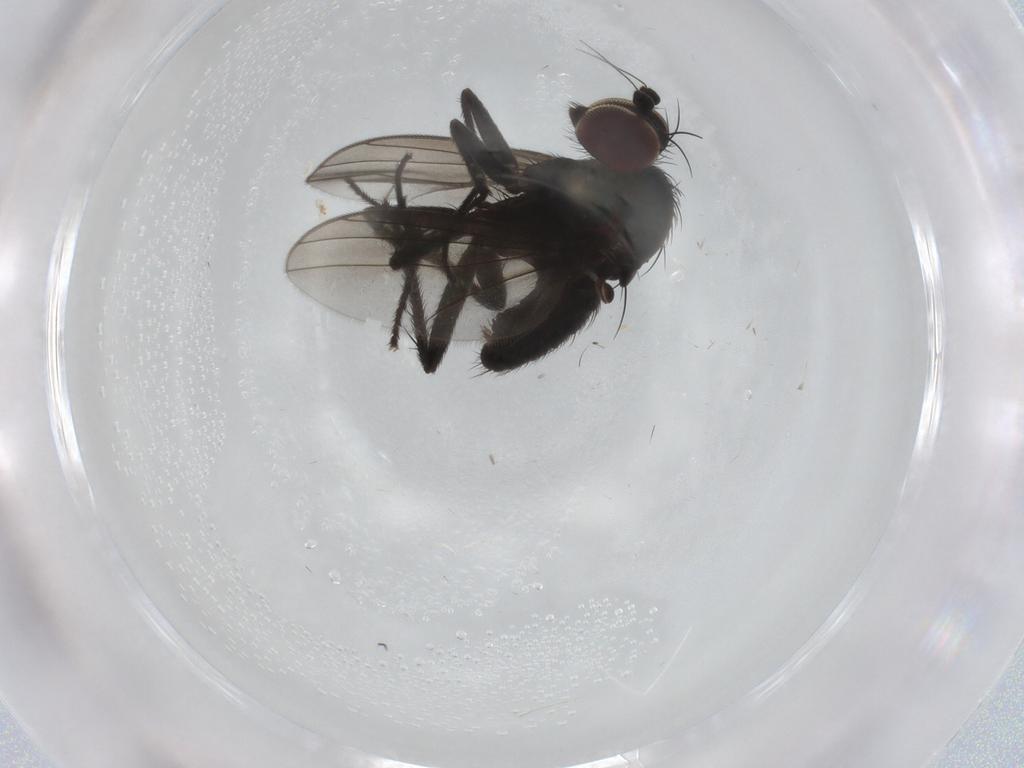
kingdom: Animalia
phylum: Arthropoda
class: Insecta
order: Diptera
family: Dolichopodidae
